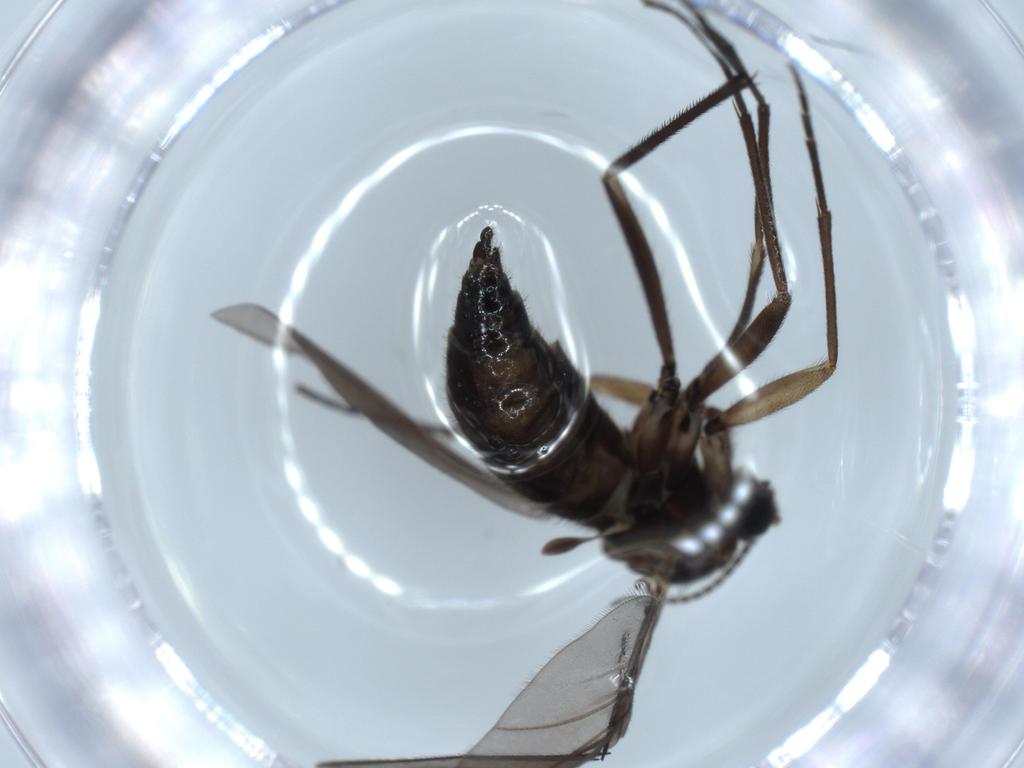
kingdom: Animalia
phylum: Arthropoda
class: Insecta
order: Diptera
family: Sciaridae
